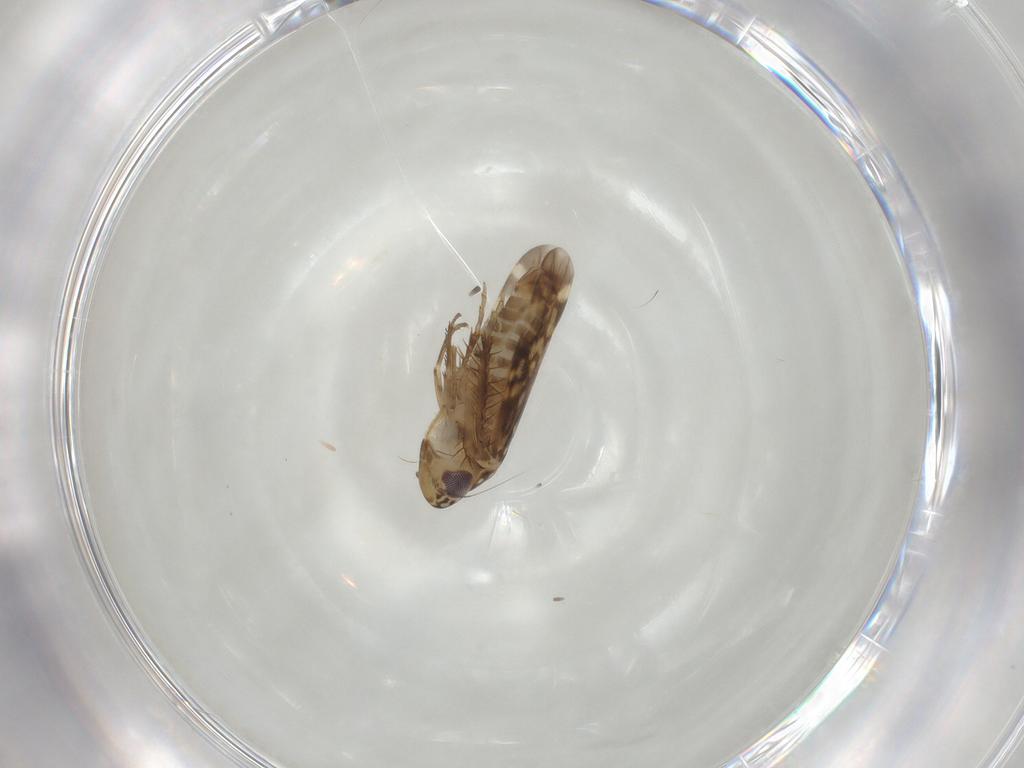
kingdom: Animalia
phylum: Arthropoda
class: Insecta
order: Hemiptera
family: Cicadellidae
